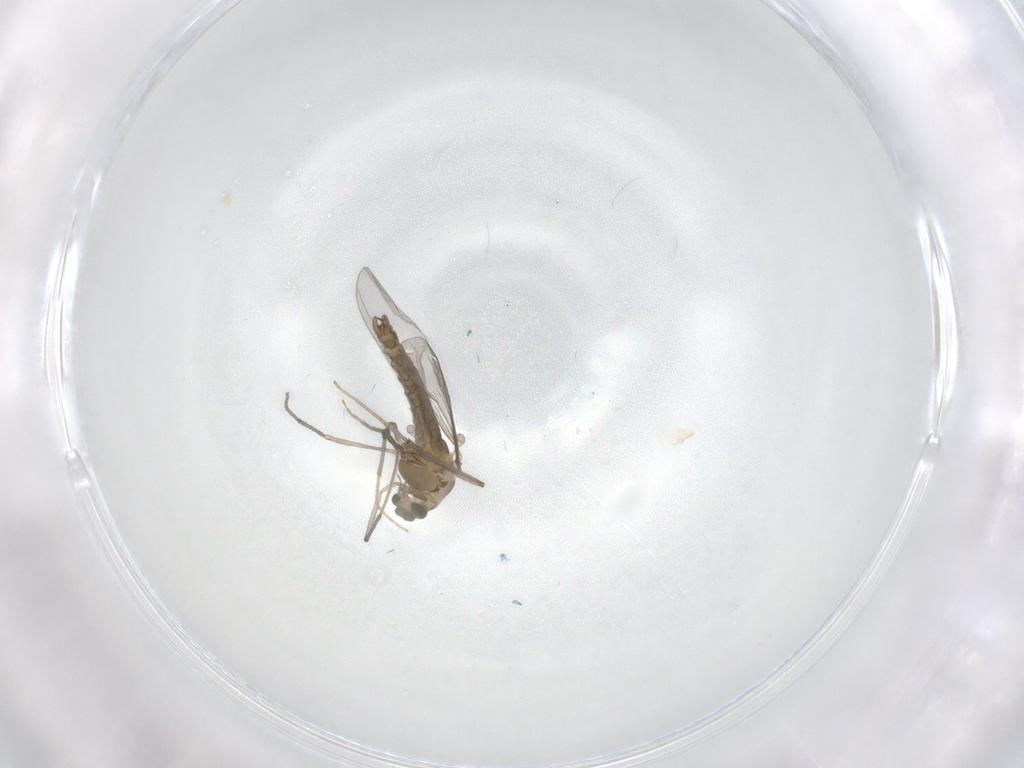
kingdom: Animalia
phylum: Arthropoda
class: Insecta
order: Diptera
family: Chironomidae
